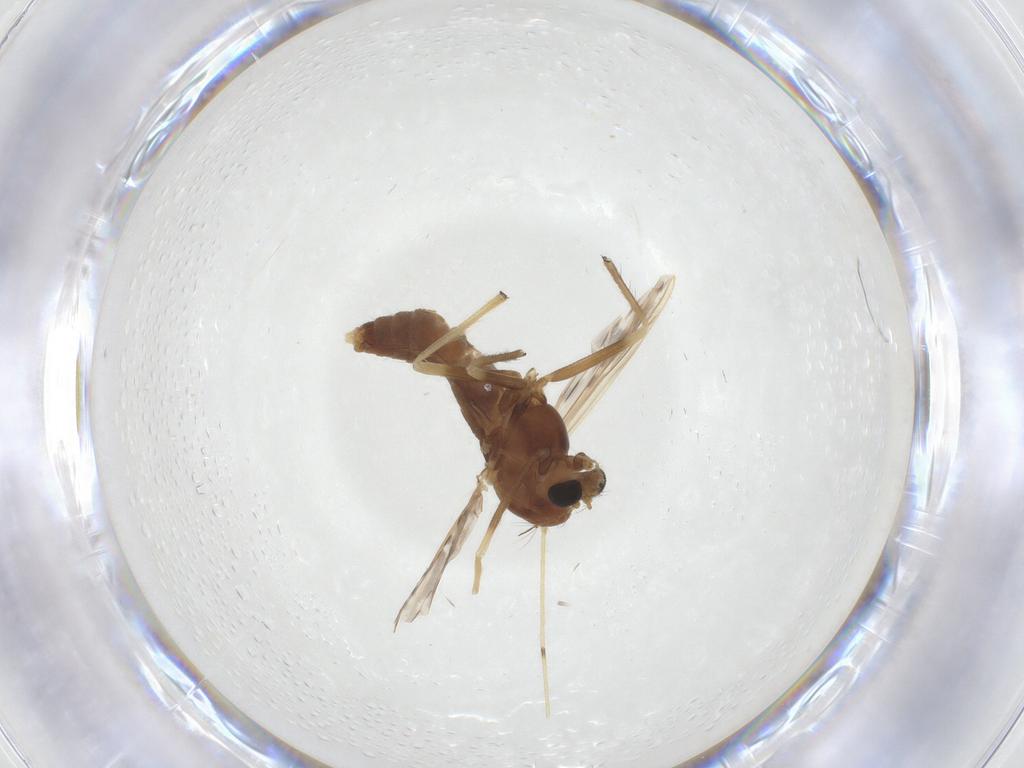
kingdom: Animalia
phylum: Arthropoda
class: Insecta
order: Diptera
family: Chironomidae
